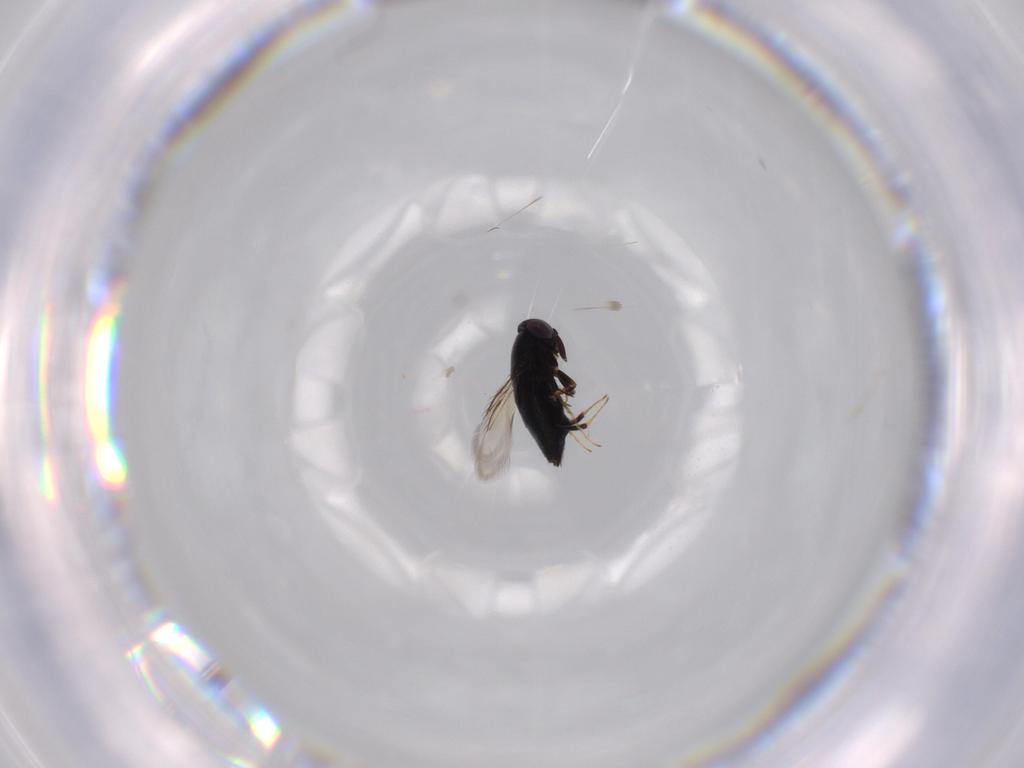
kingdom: Animalia
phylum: Arthropoda
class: Insecta
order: Hymenoptera
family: Signiphoridae
